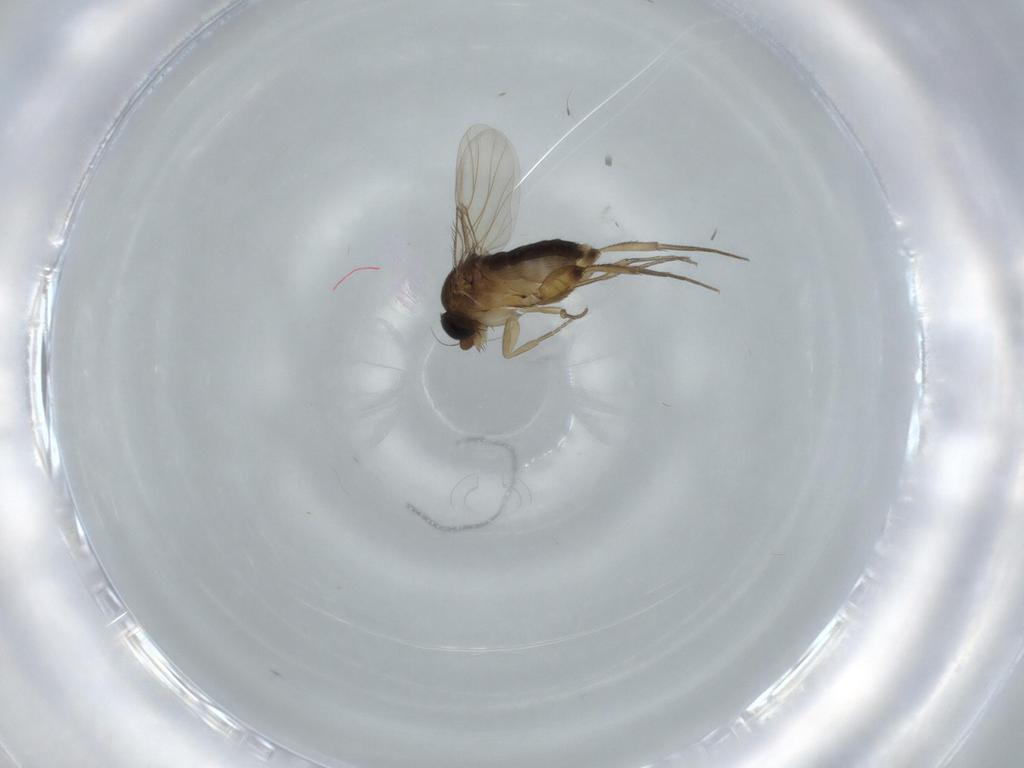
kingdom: Animalia
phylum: Arthropoda
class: Insecta
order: Diptera
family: Phoridae
